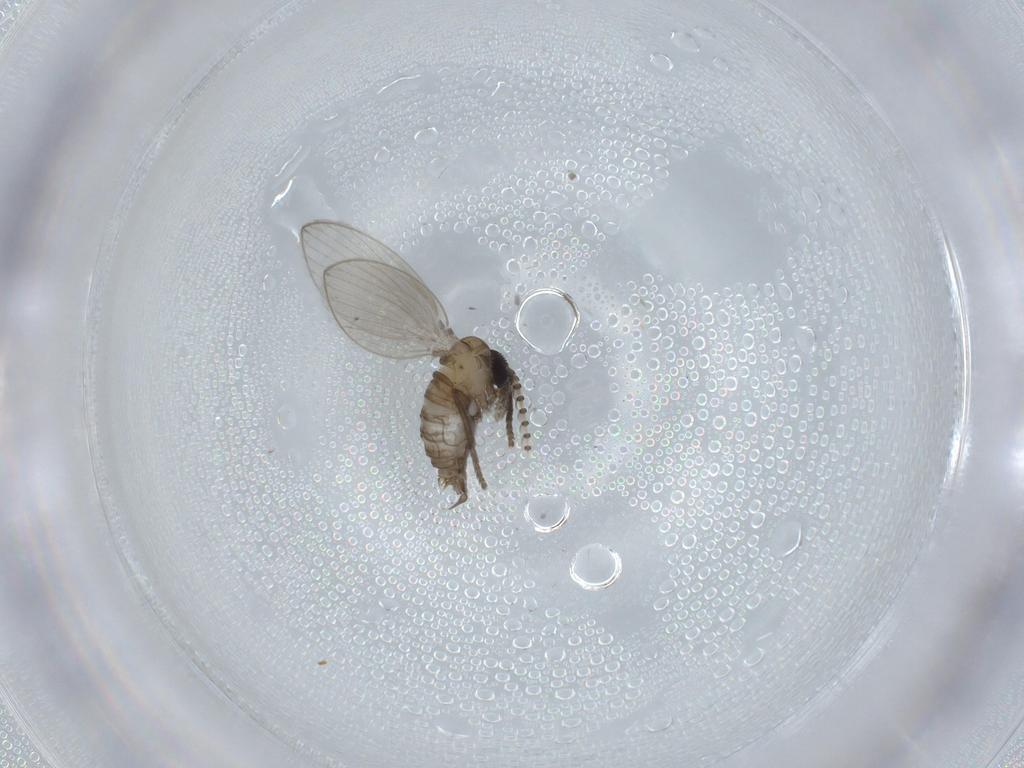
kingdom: Animalia
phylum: Arthropoda
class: Insecta
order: Diptera
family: Psychodidae
